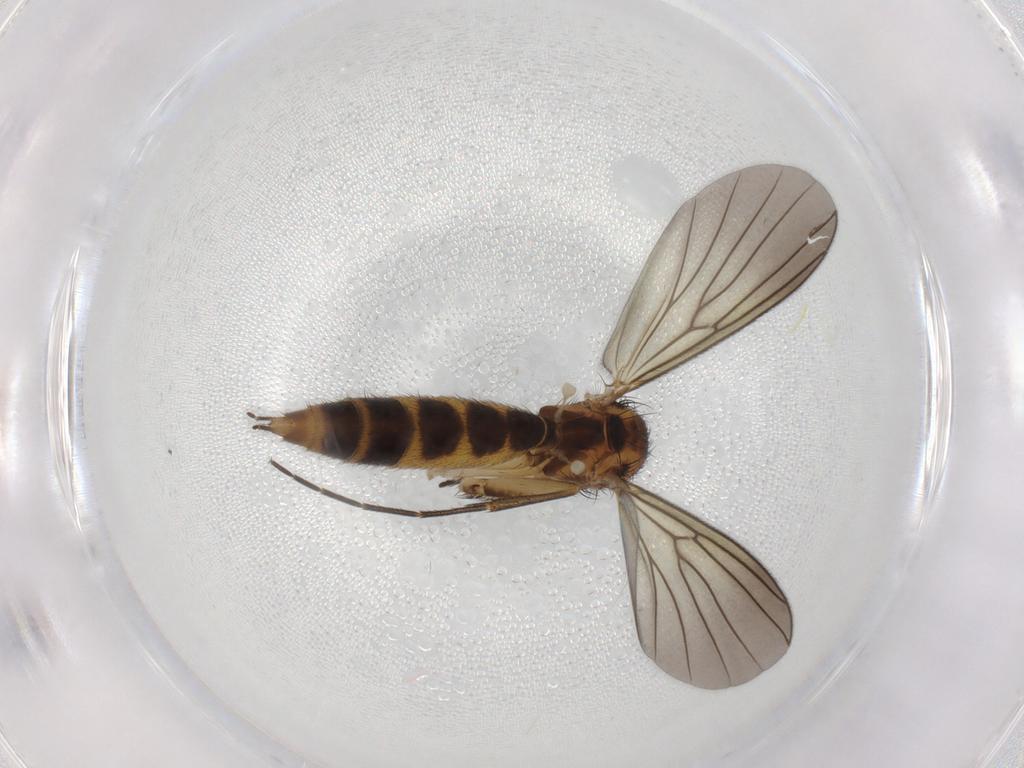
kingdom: Animalia
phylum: Arthropoda
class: Insecta
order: Diptera
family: Mycetophilidae
